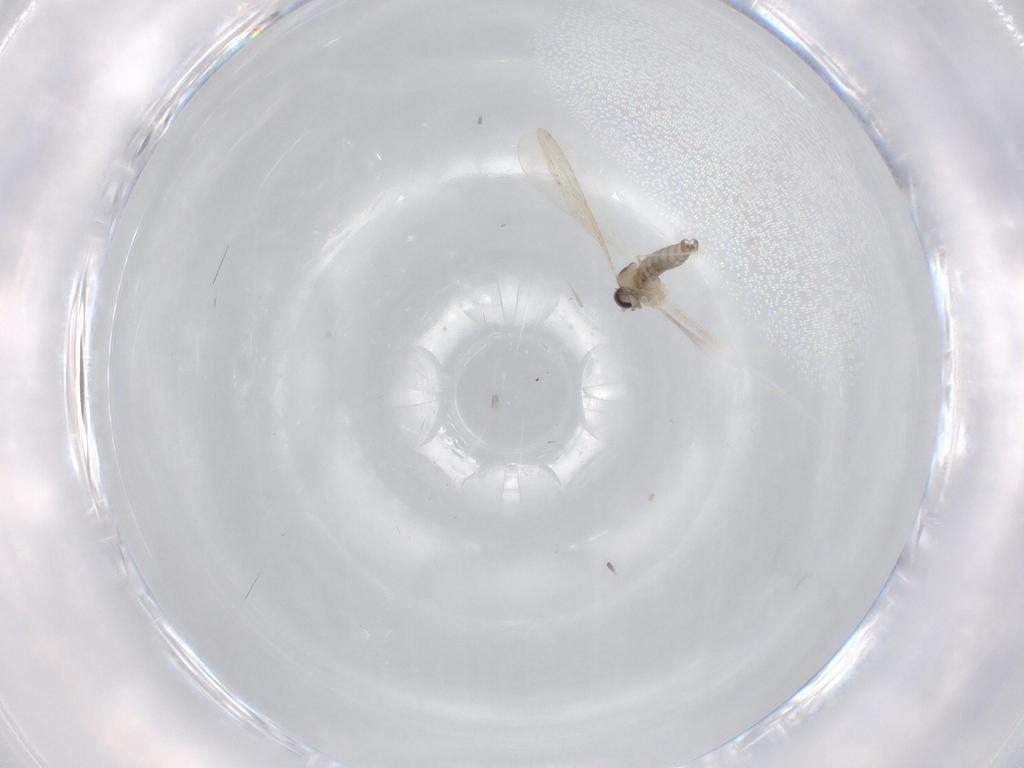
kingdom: Animalia
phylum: Arthropoda
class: Insecta
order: Diptera
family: Cecidomyiidae
